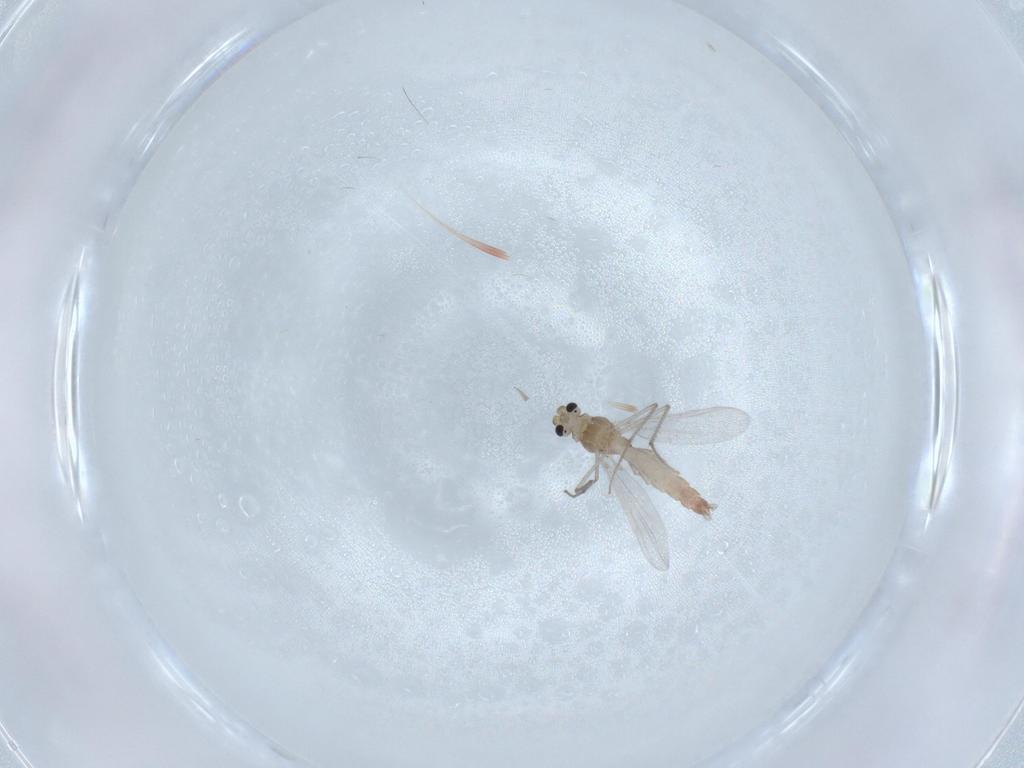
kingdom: Animalia
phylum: Arthropoda
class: Insecta
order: Diptera
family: Chironomidae
